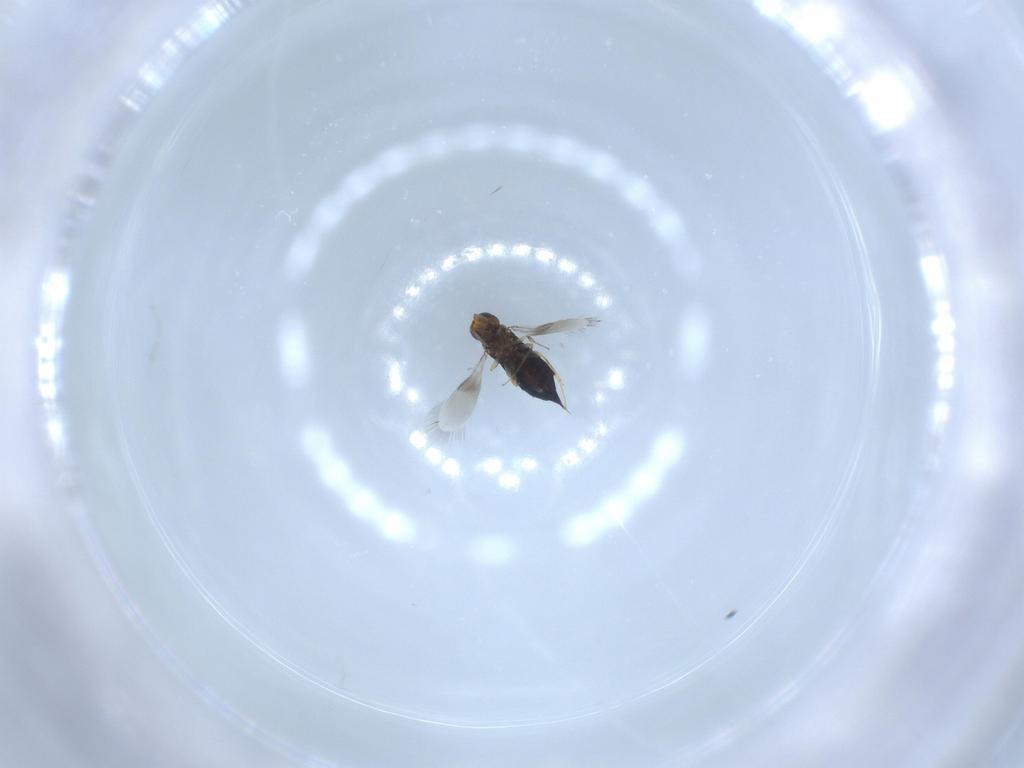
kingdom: Animalia
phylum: Arthropoda
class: Insecta
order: Hymenoptera
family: Signiphoridae
